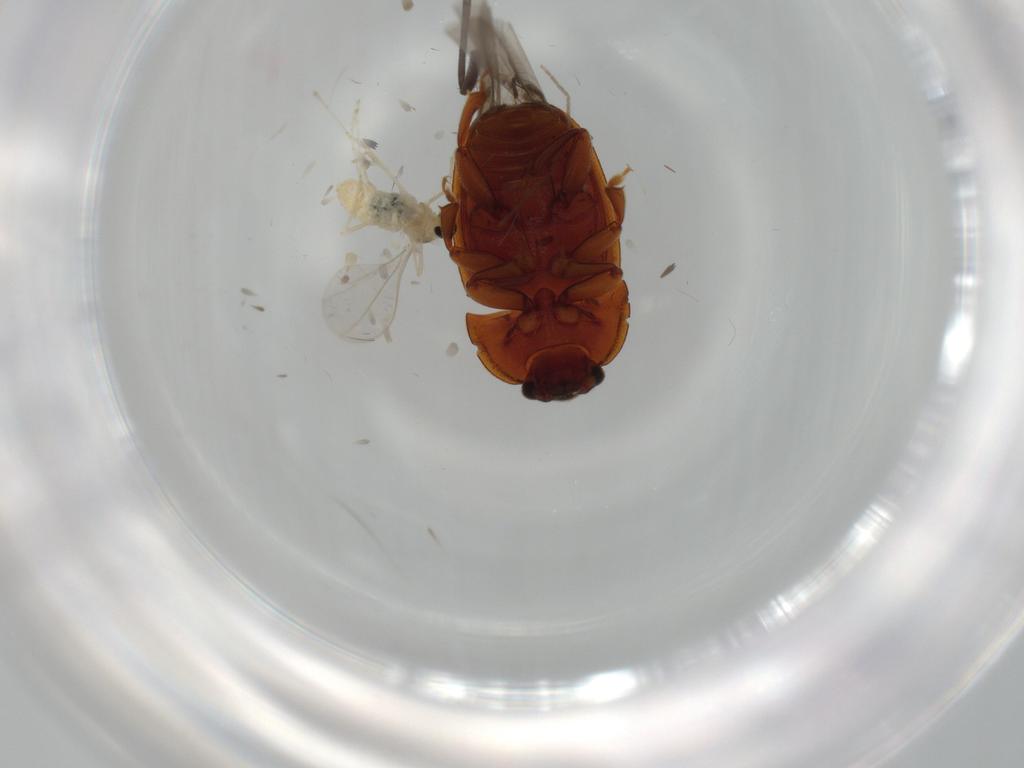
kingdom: Animalia
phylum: Arthropoda
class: Insecta
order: Diptera
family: Cecidomyiidae
